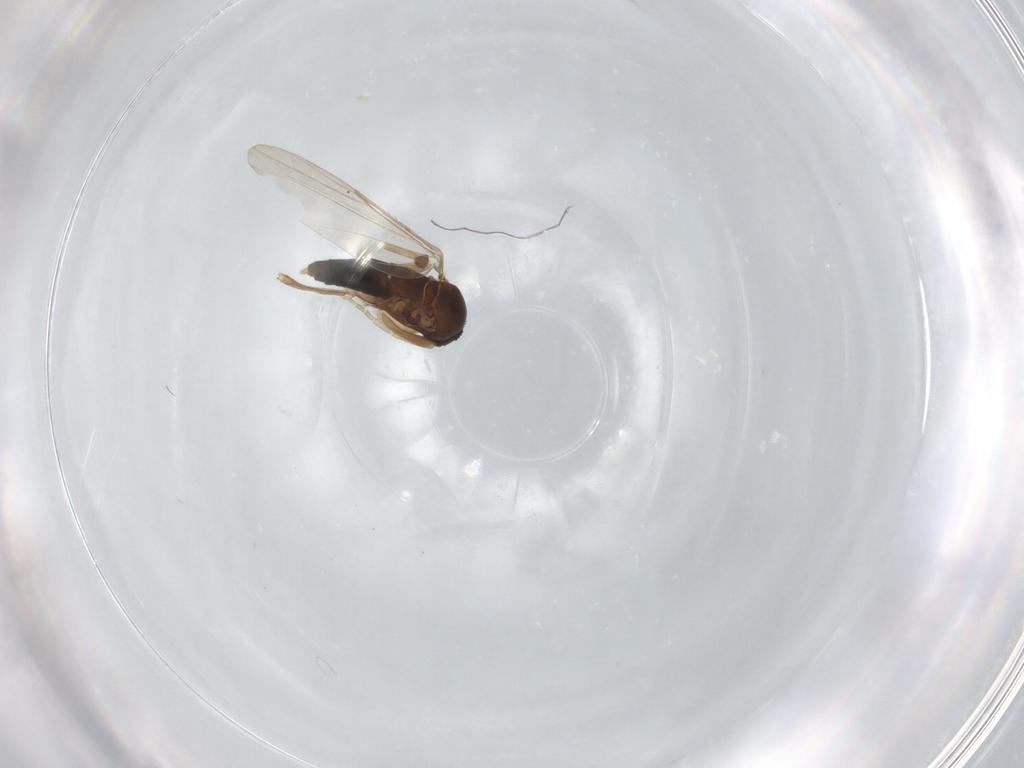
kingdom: Animalia
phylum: Arthropoda
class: Insecta
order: Diptera
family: Phoridae
